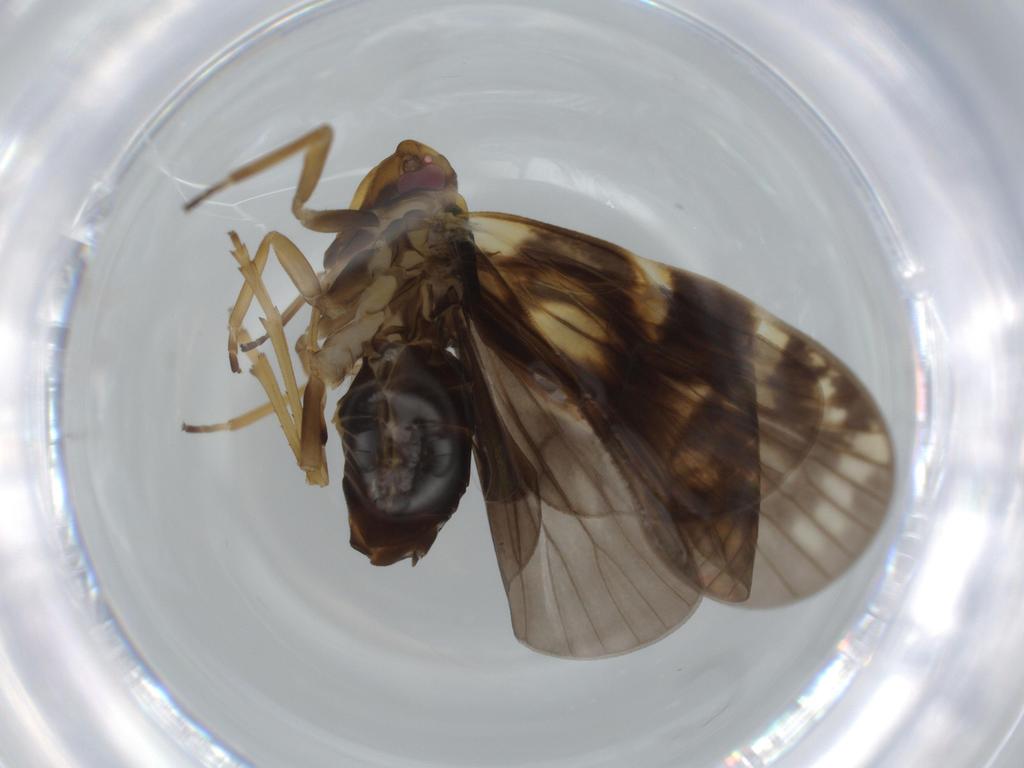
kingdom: Animalia
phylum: Arthropoda
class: Insecta
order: Hemiptera
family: Cixiidae
